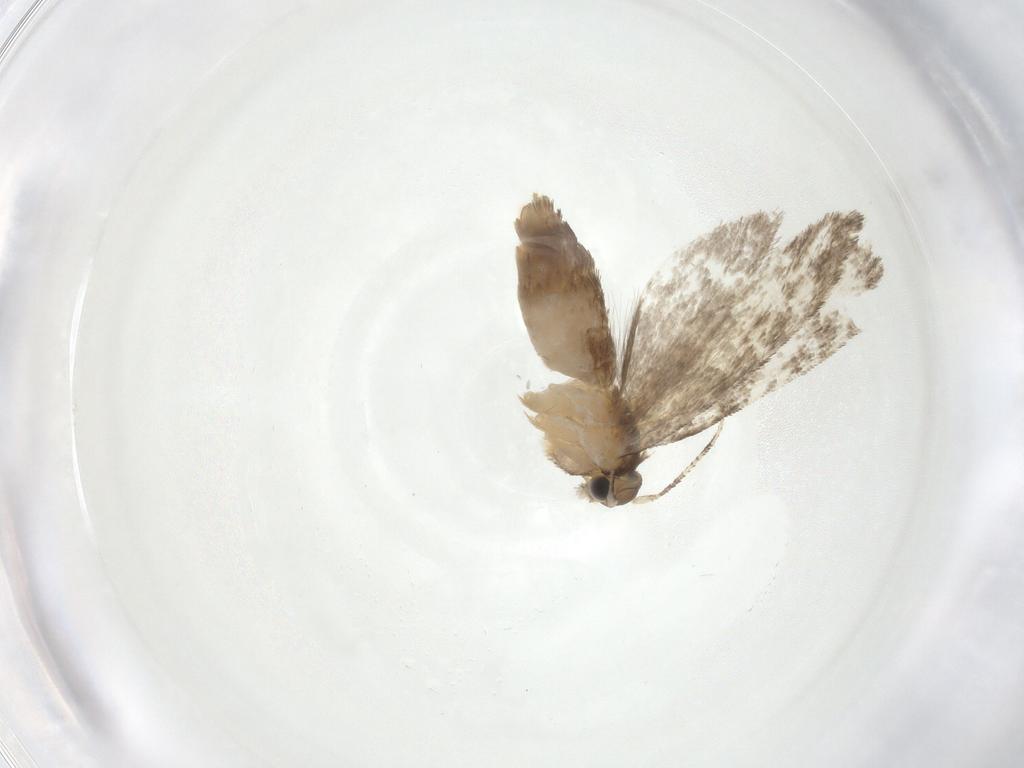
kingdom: Animalia
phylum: Arthropoda
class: Insecta
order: Lepidoptera
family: Tineidae
